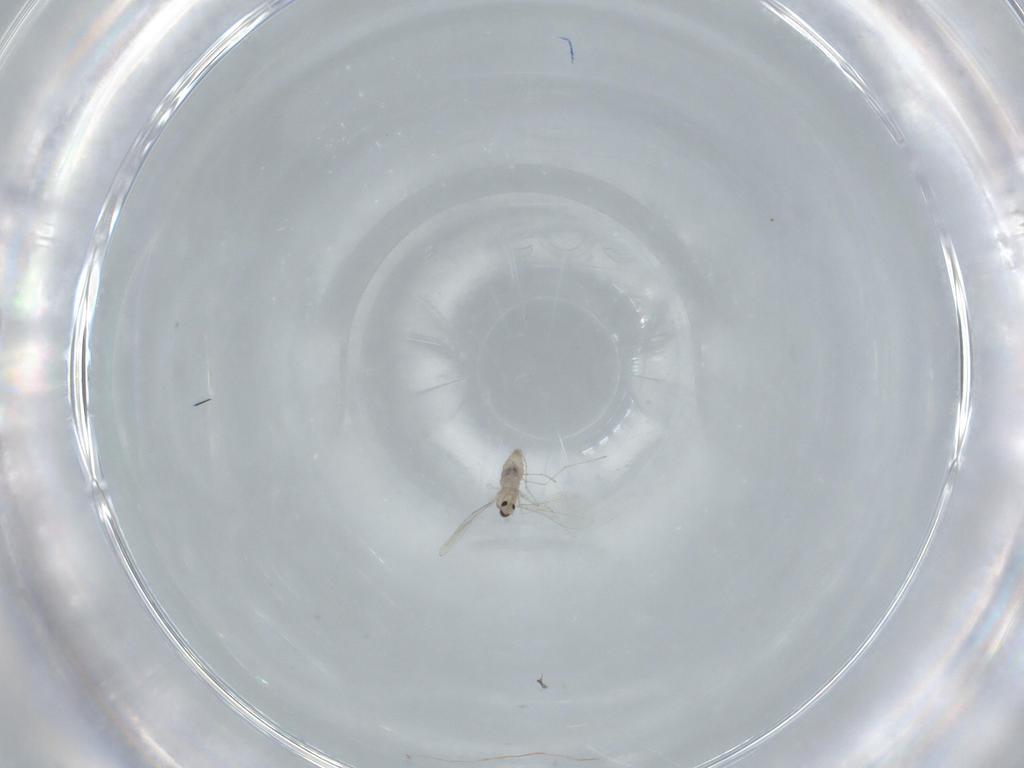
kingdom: Animalia
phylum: Arthropoda
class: Insecta
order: Diptera
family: Cecidomyiidae
